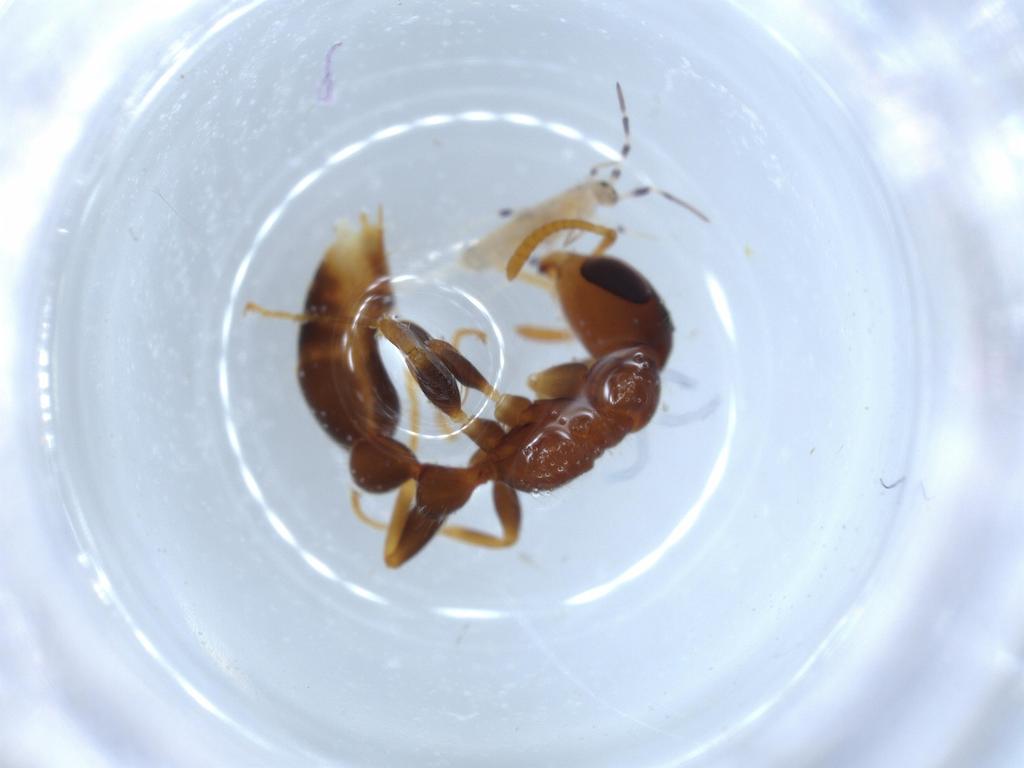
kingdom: Animalia
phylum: Arthropoda
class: Collembola
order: Entomobryomorpha
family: Entomobryidae
